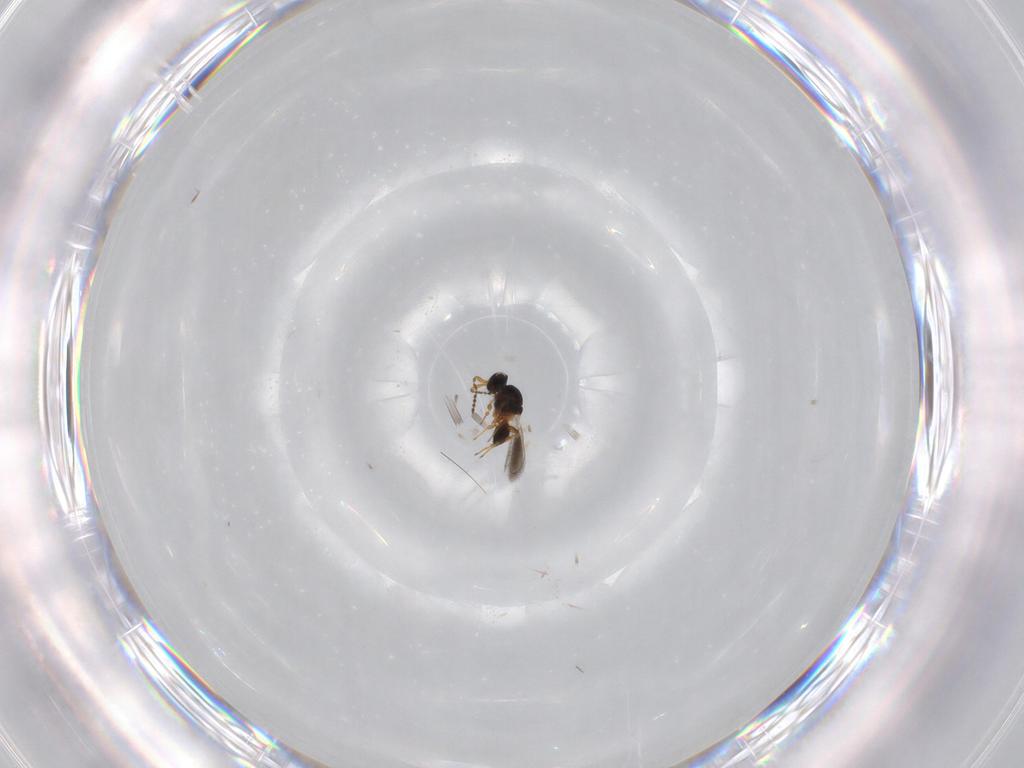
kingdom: Animalia
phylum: Arthropoda
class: Insecta
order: Hymenoptera
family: Platygastridae
